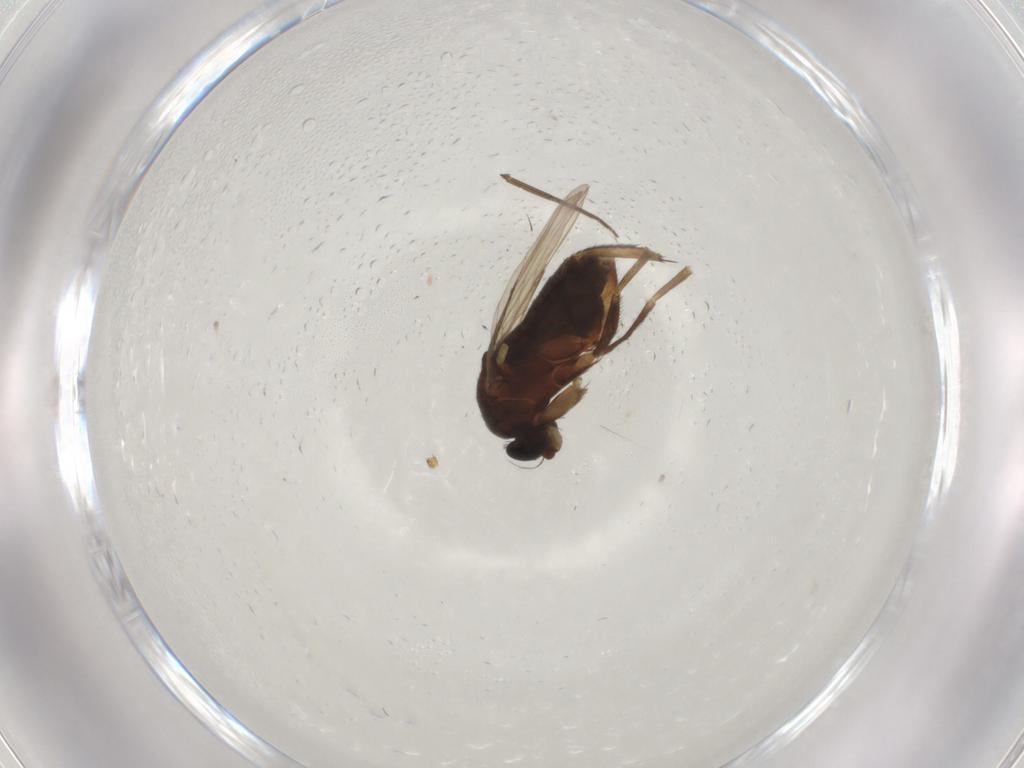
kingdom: Animalia
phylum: Arthropoda
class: Insecta
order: Diptera
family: Phoridae
